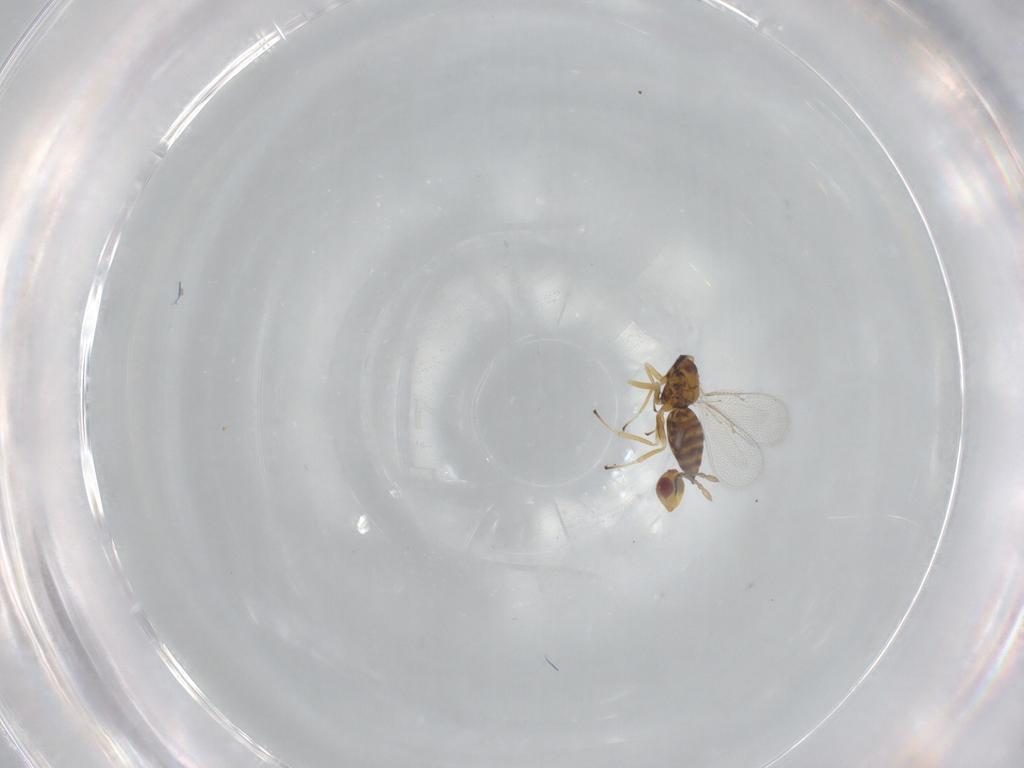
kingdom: Animalia
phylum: Arthropoda
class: Insecta
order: Hymenoptera
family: Eulophidae
